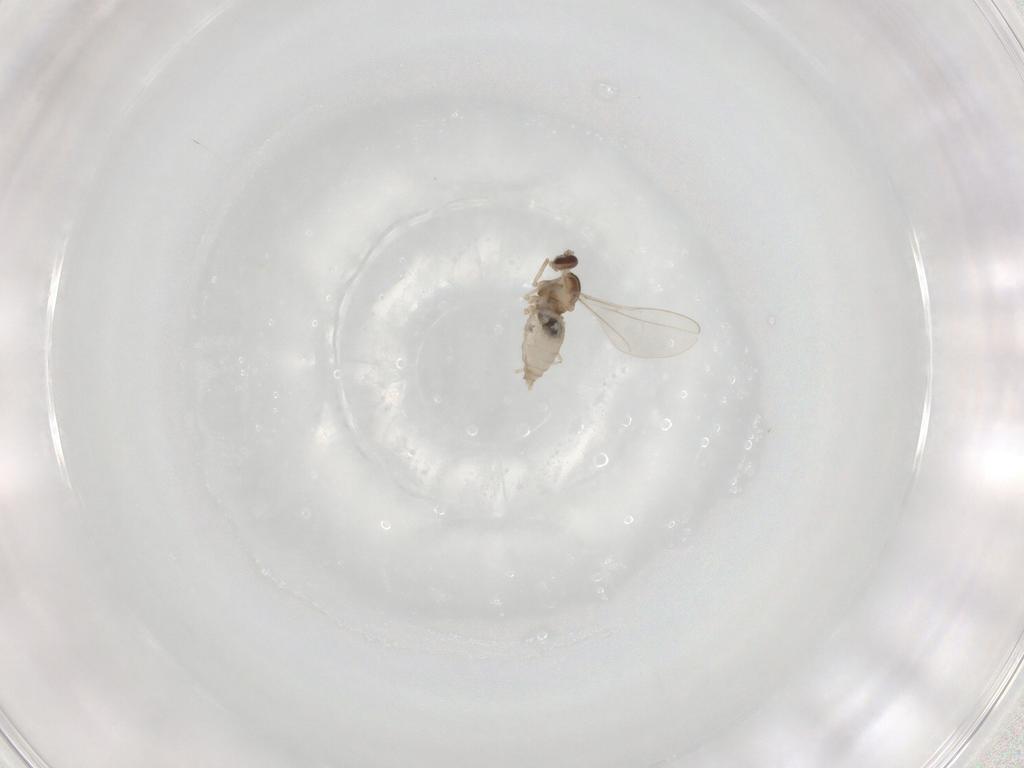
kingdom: Animalia
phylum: Arthropoda
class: Insecta
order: Diptera
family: Cecidomyiidae
